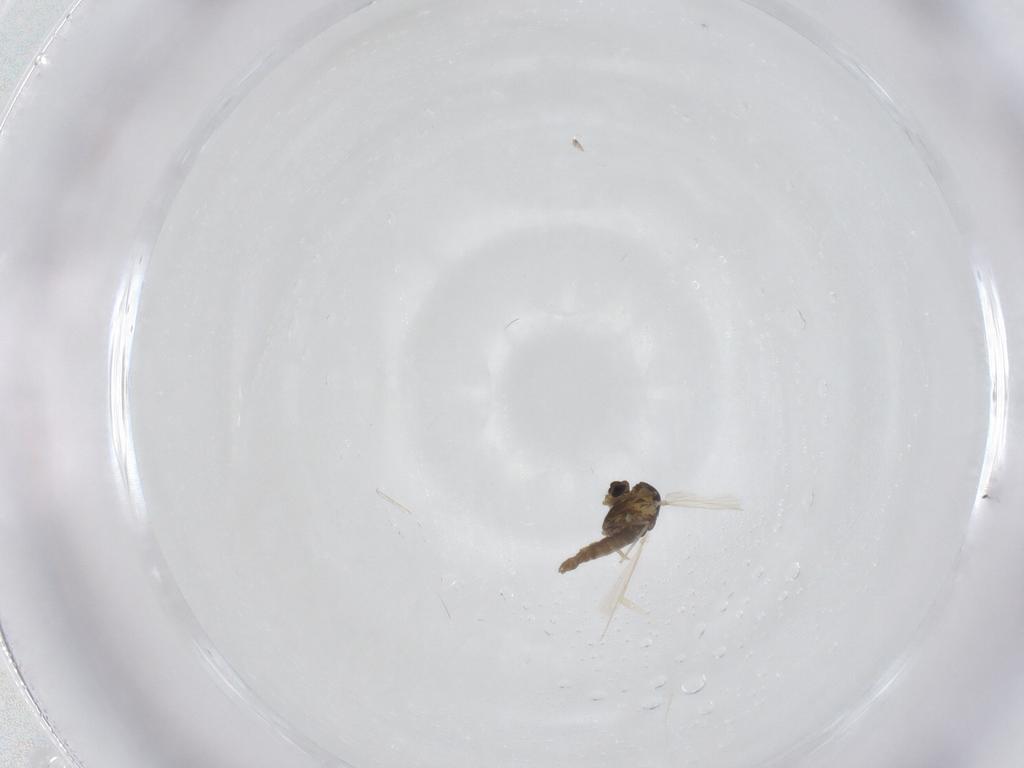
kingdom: Animalia
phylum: Arthropoda
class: Insecta
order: Diptera
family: Chironomidae
